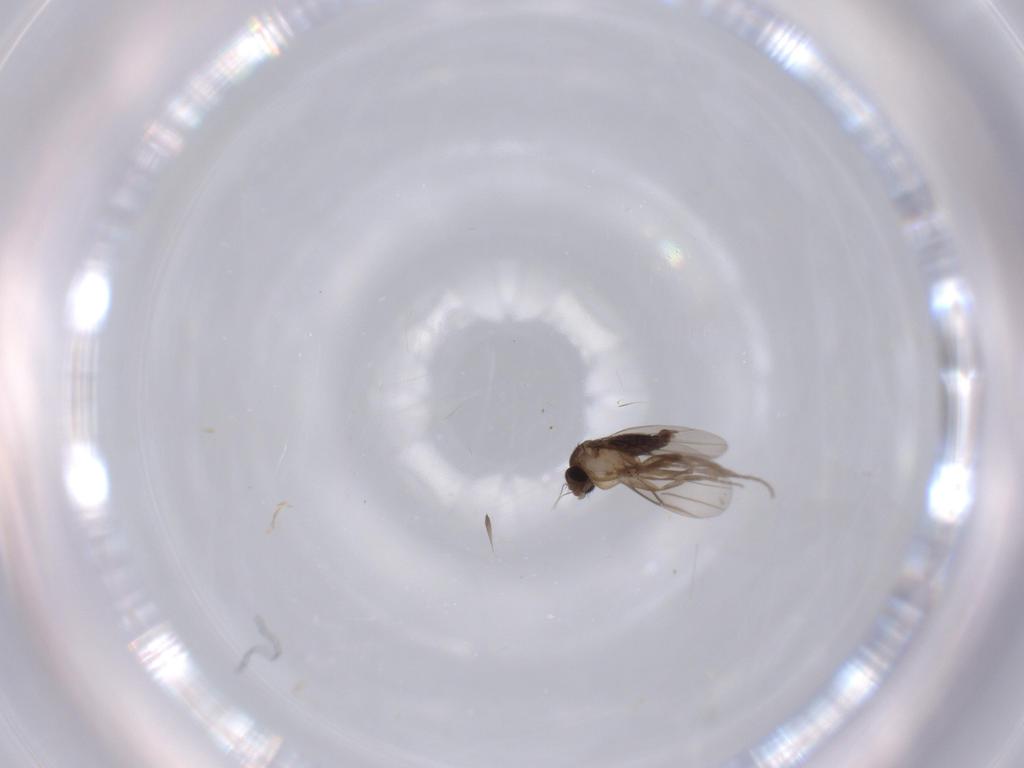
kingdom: Animalia
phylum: Arthropoda
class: Insecta
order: Diptera
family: Phoridae
